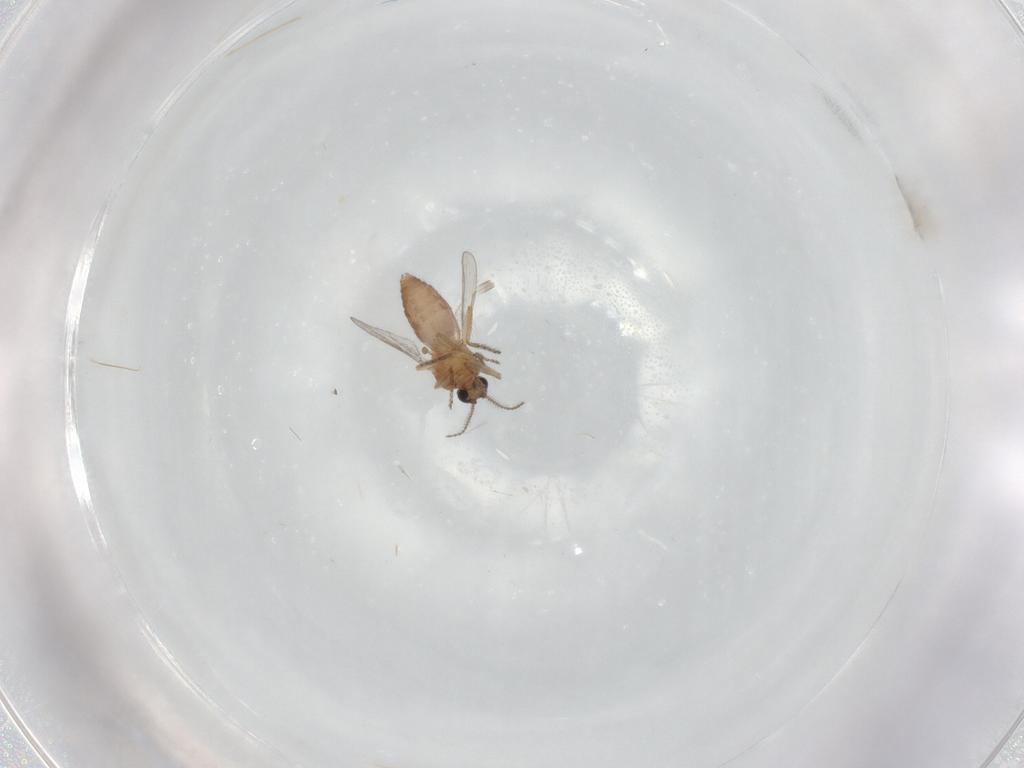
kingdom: Animalia
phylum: Arthropoda
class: Insecta
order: Diptera
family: Ceratopogonidae
